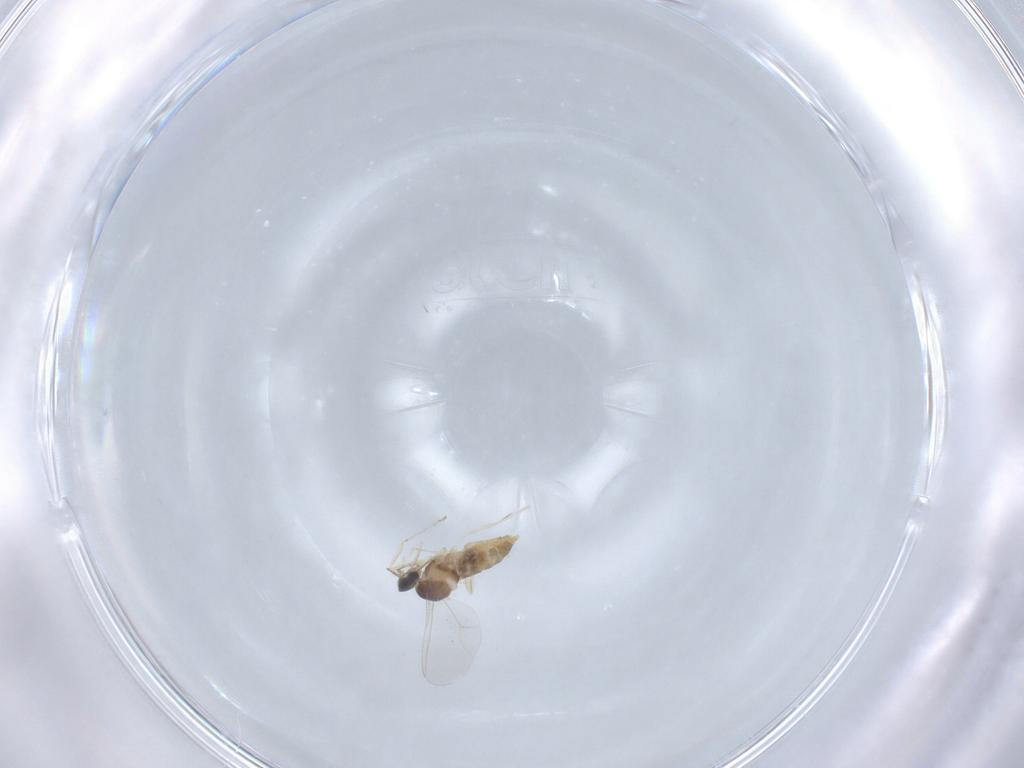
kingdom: Animalia
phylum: Arthropoda
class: Insecta
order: Diptera
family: Cecidomyiidae
